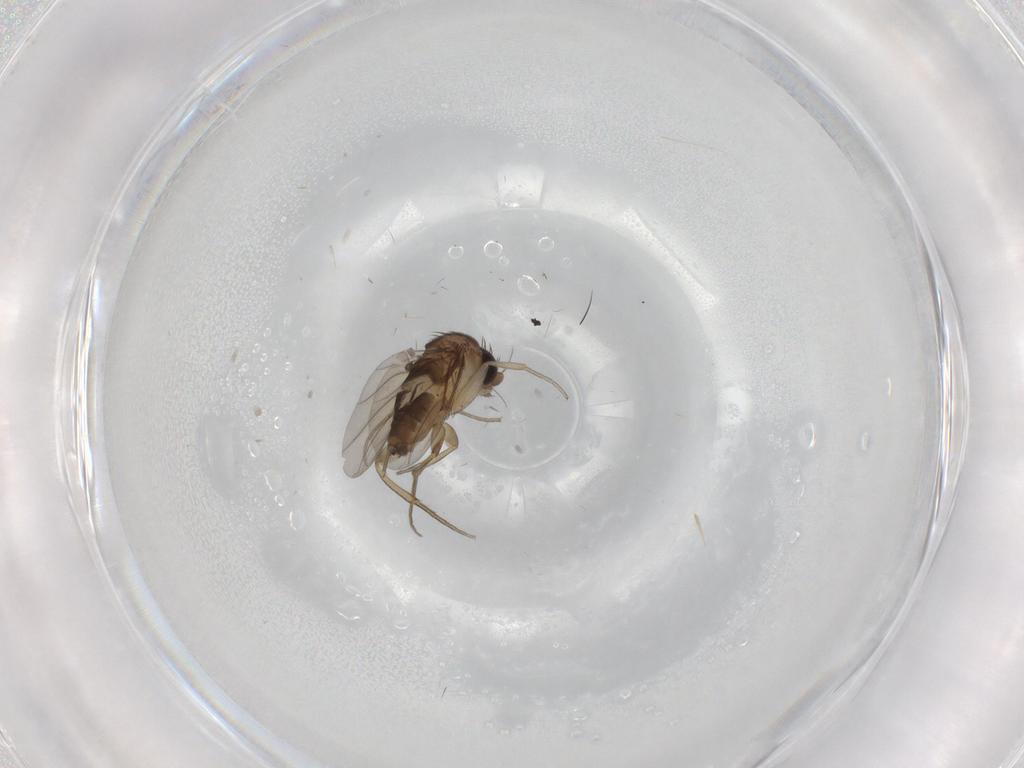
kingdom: Animalia
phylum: Arthropoda
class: Insecta
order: Diptera
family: Phoridae
